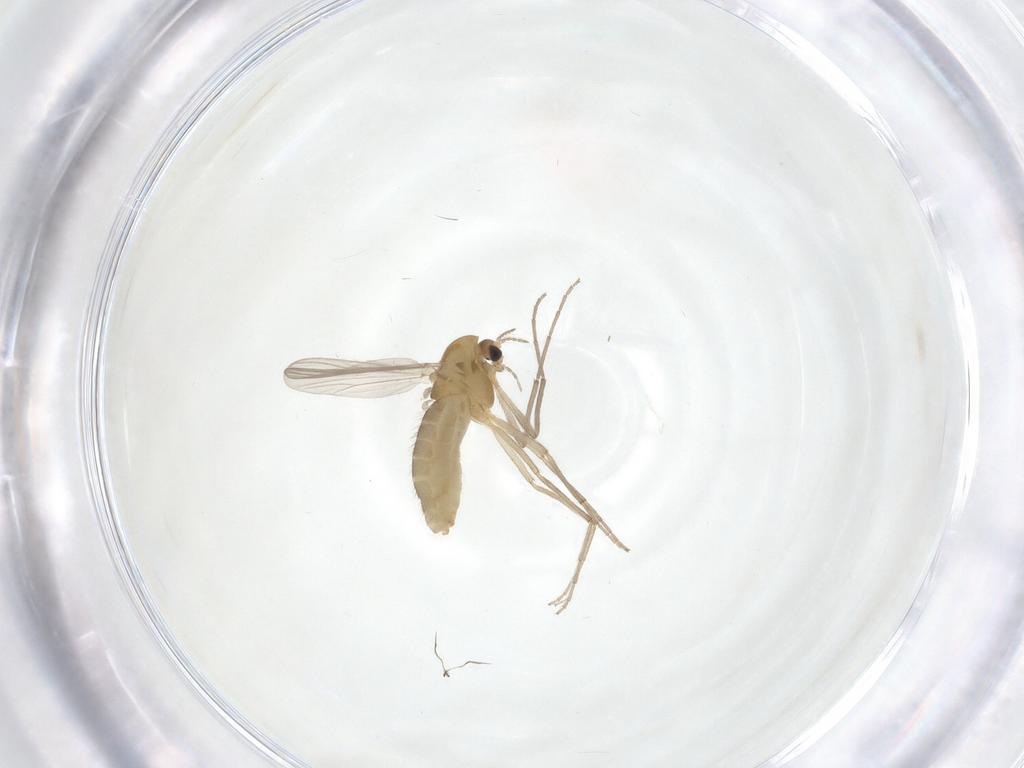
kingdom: Animalia
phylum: Arthropoda
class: Insecta
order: Diptera
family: Chironomidae
